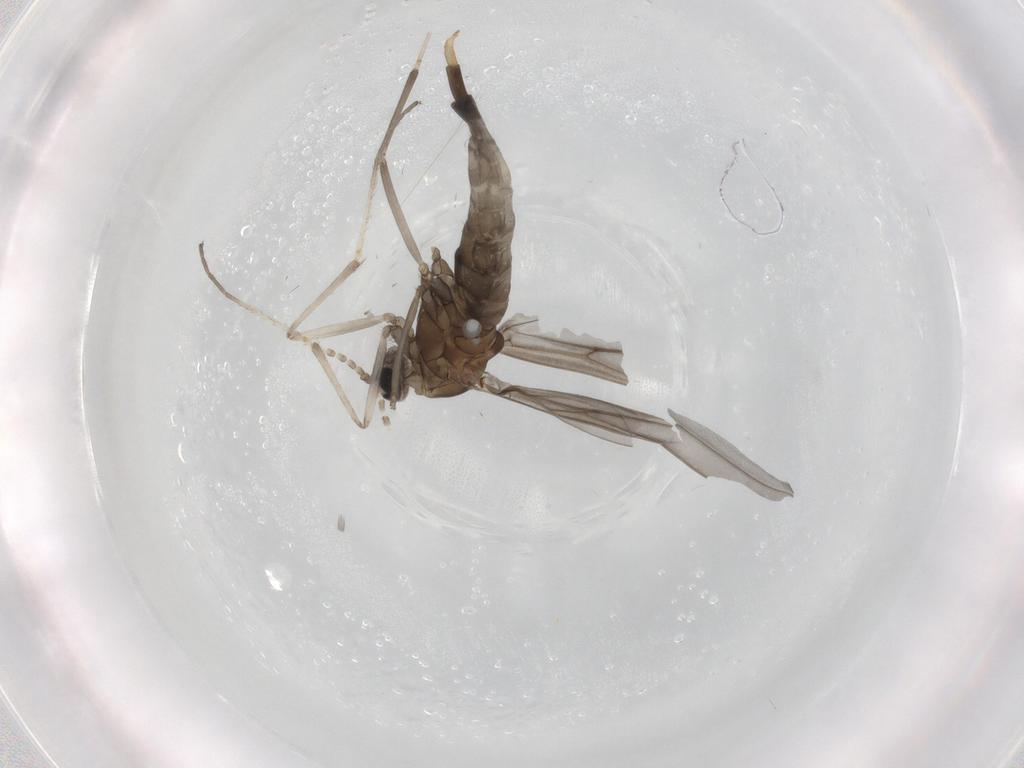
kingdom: Animalia
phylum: Arthropoda
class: Insecta
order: Diptera
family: Cecidomyiidae
